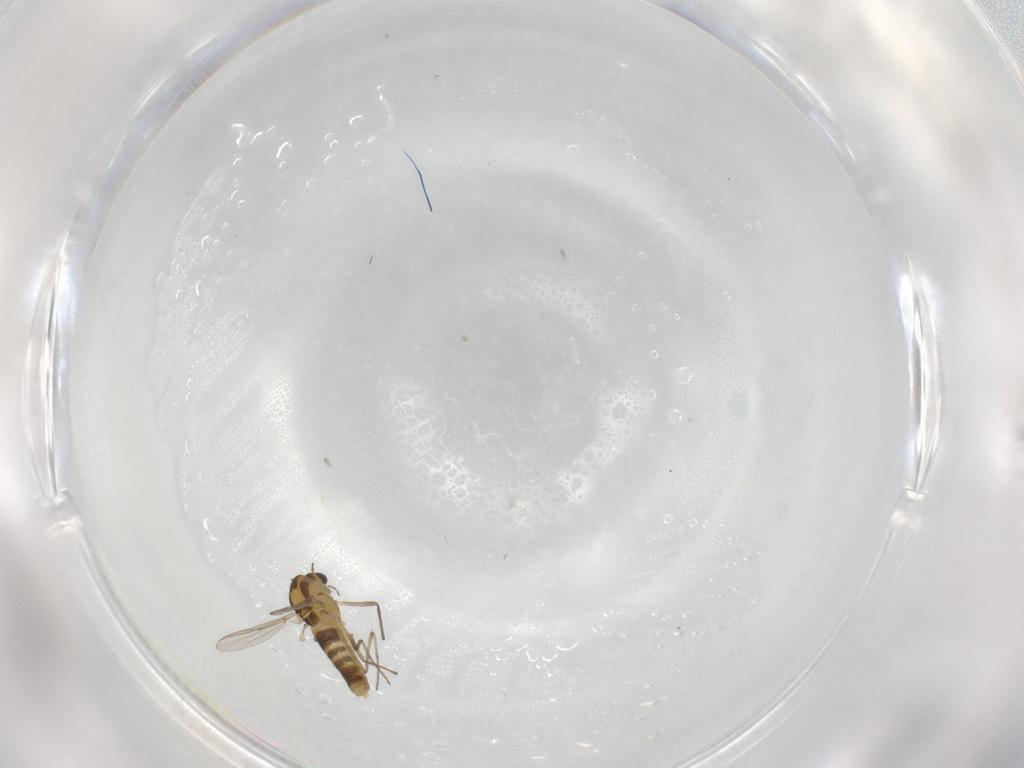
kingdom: Animalia
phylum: Arthropoda
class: Insecta
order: Diptera
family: Chironomidae
